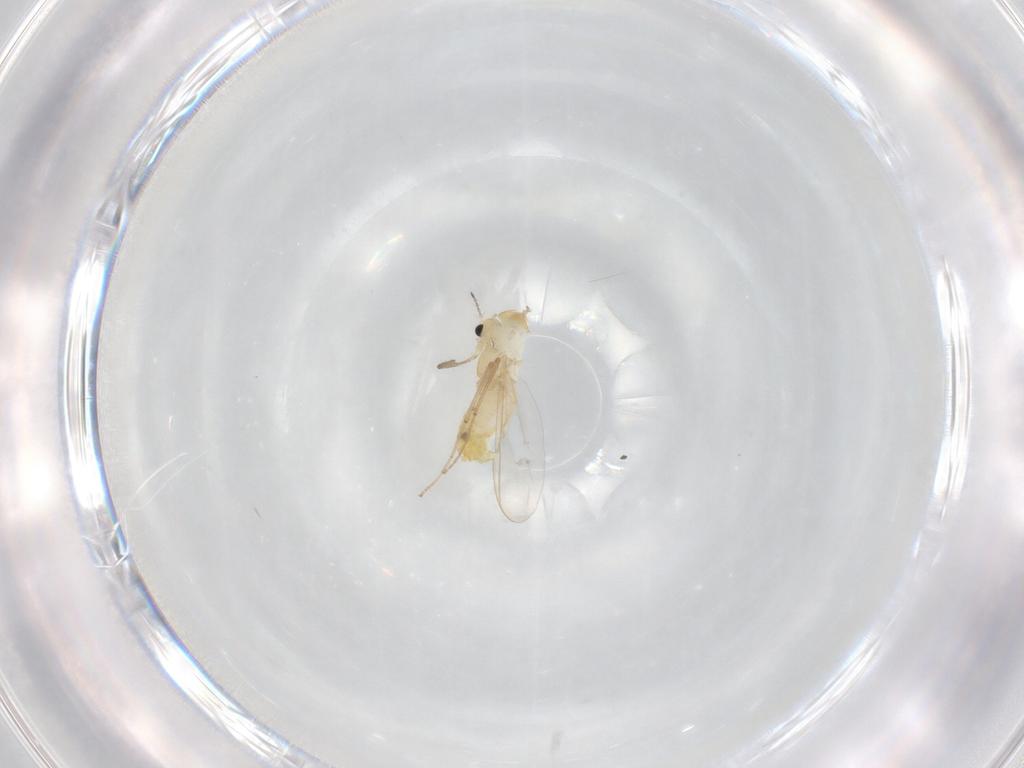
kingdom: Animalia
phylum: Arthropoda
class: Insecta
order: Diptera
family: Chironomidae
